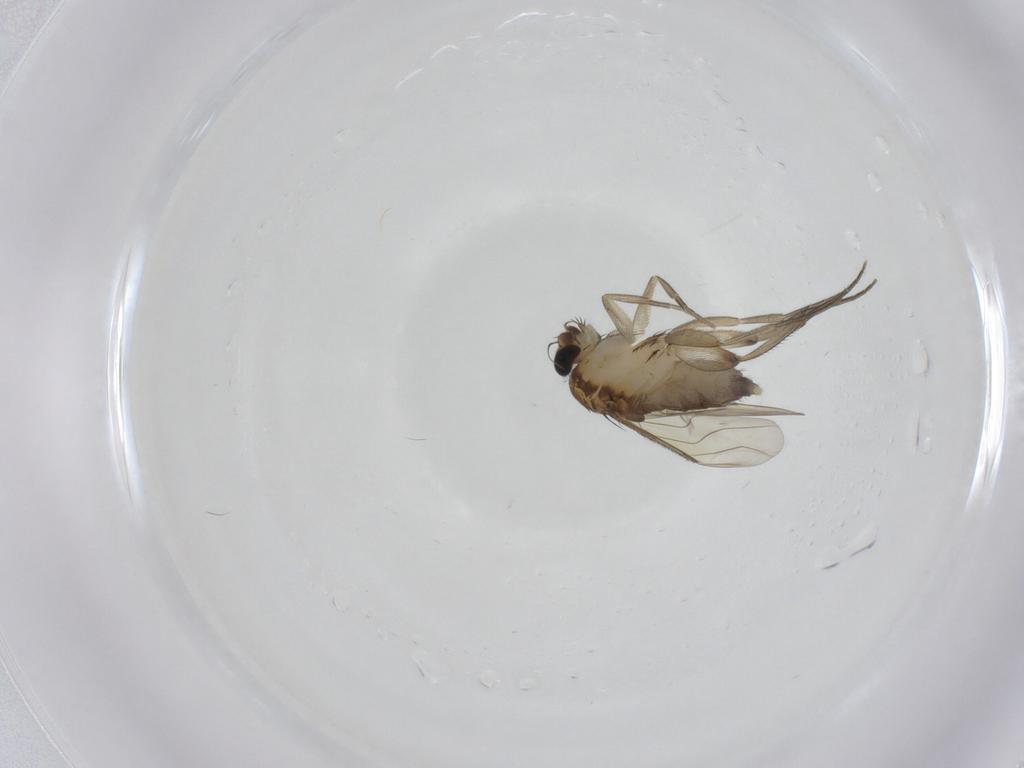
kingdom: Animalia
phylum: Arthropoda
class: Insecta
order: Diptera
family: Sciaridae
